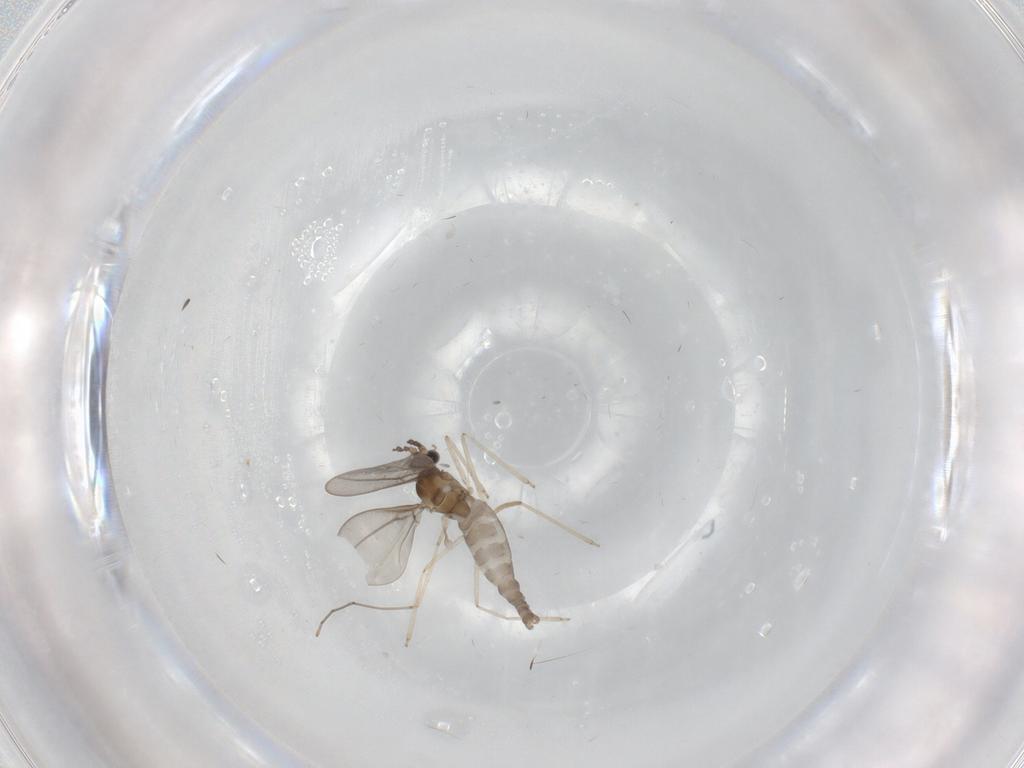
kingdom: Animalia
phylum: Arthropoda
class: Insecta
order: Diptera
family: Cecidomyiidae
